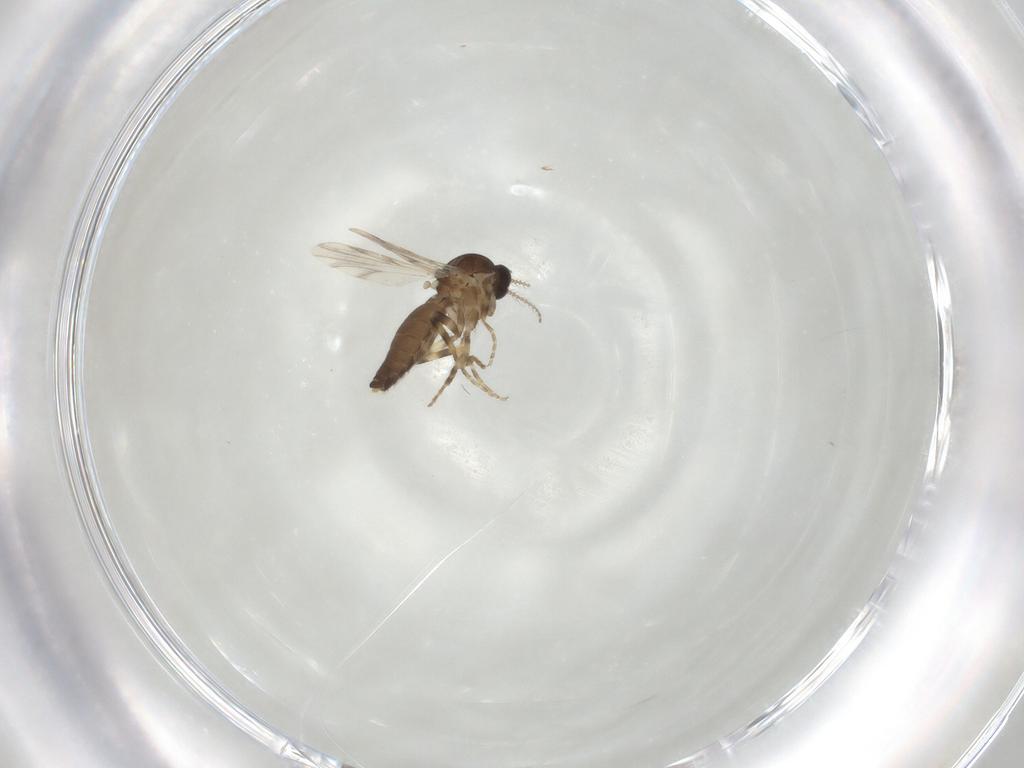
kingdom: Animalia
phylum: Arthropoda
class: Insecta
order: Diptera
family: Ceratopogonidae
